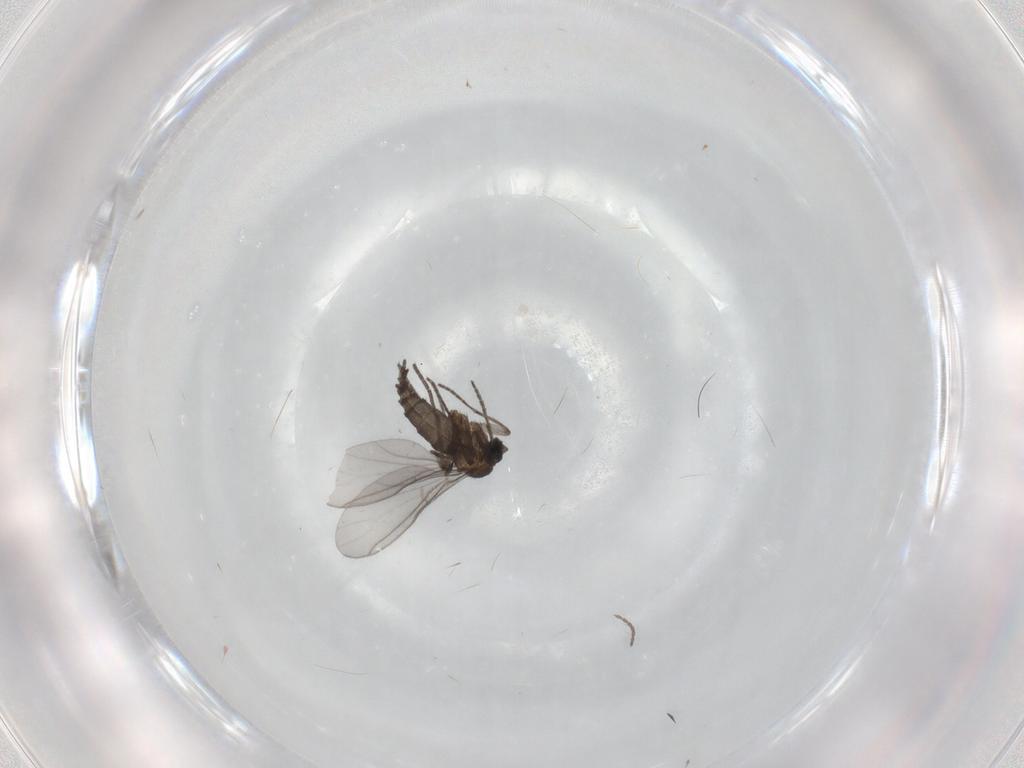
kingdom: Animalia
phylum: Arthropoda
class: Insecta
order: Diptera
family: Sciaridae
